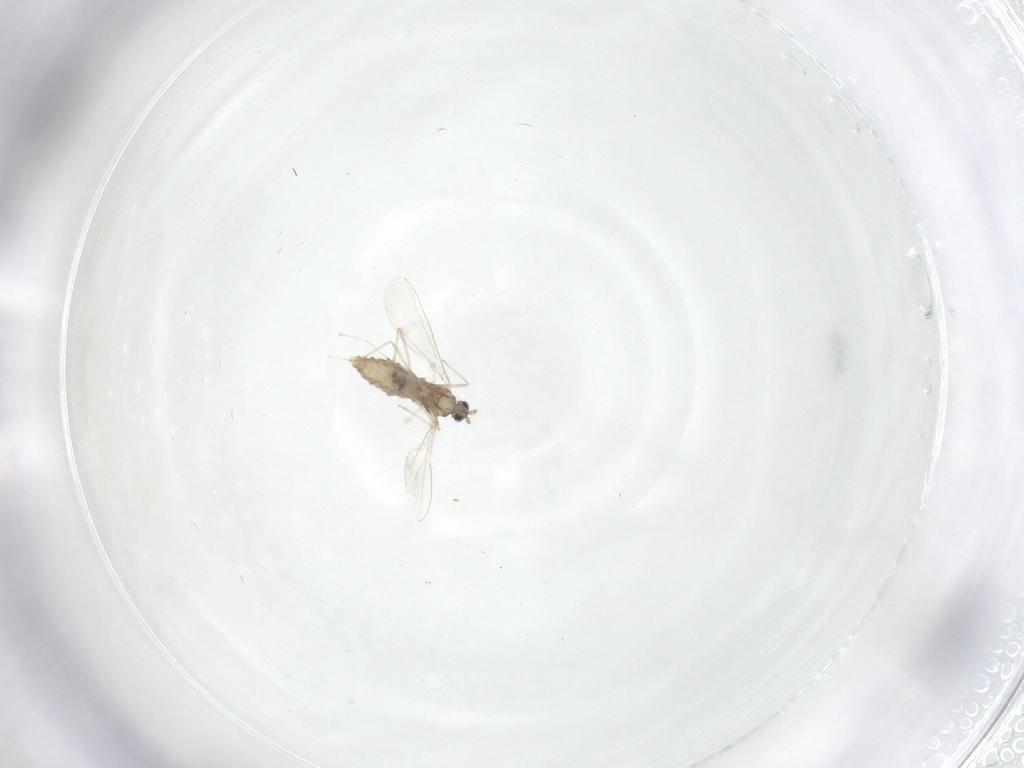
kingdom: Animalia
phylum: Arthropoda
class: Insecta
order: Diptera
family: Cecidomyiidae
